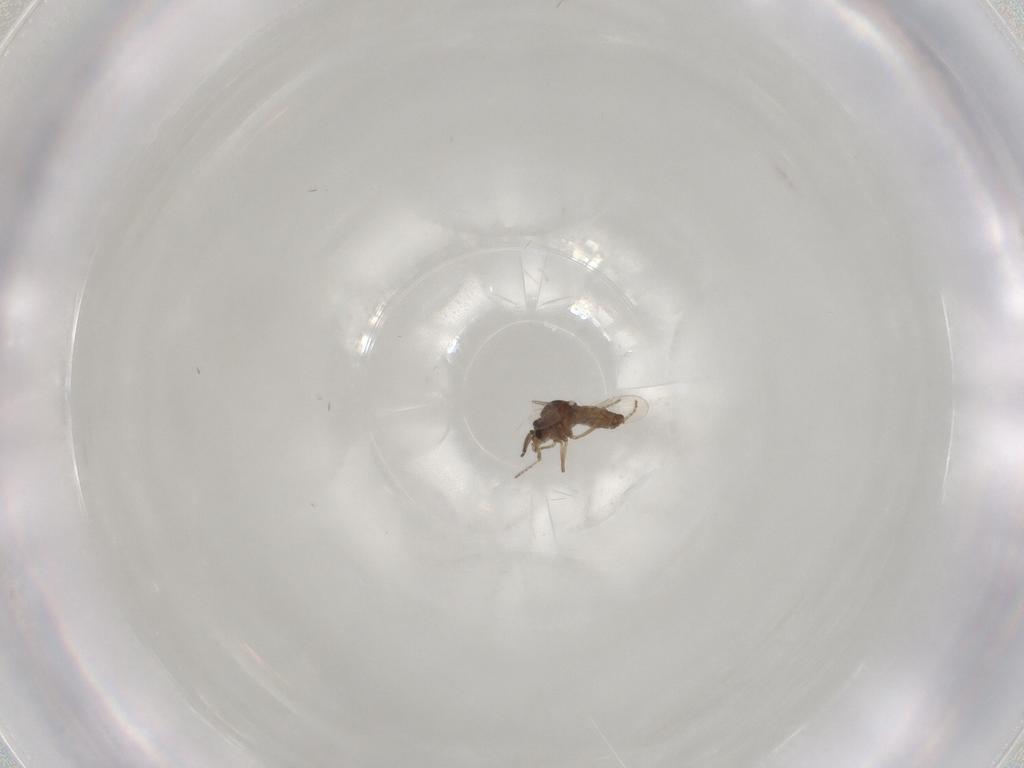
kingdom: Animalia
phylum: Arthropoda
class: Insecta
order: Diptera
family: Ceratopogonidae
